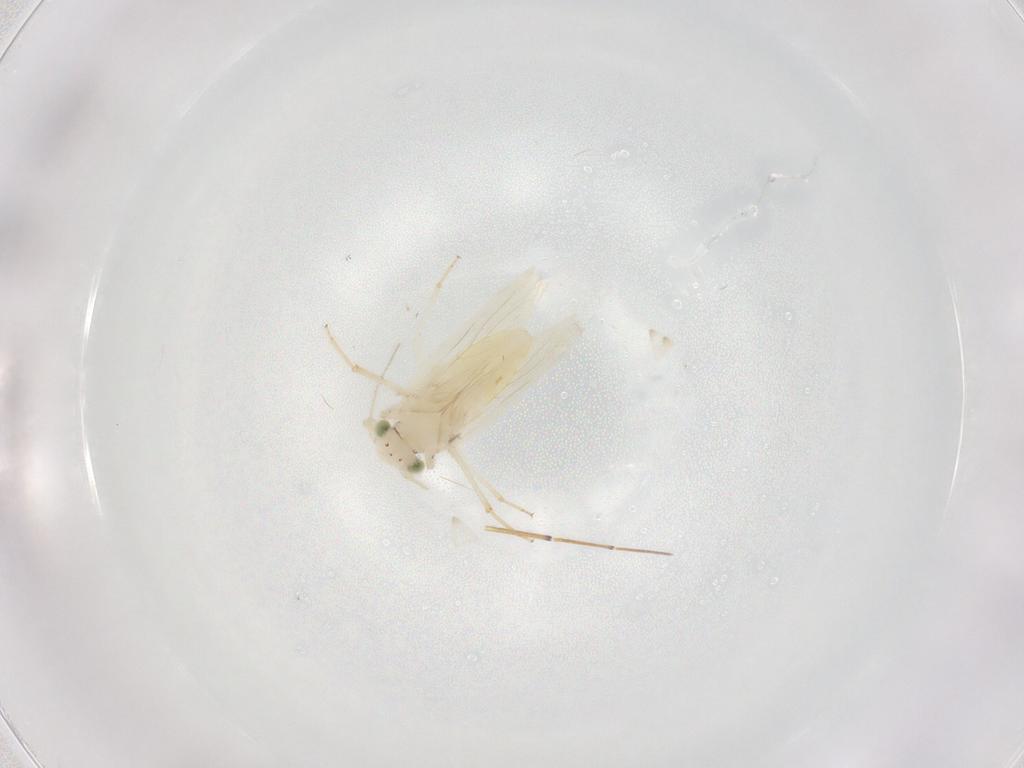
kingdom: Animalia
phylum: Arthropoda
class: Insecta
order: Psocodea
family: Lepidopsocidae
